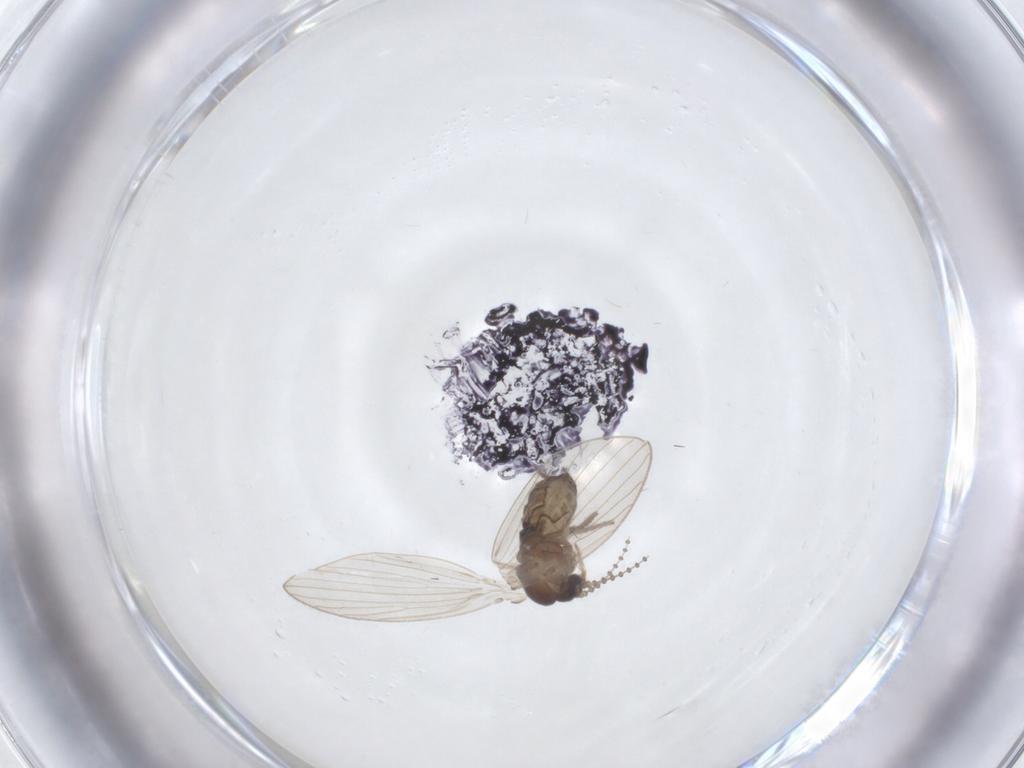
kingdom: Animalia
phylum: Arthropoda
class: Insecta
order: Diptera
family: Psychodidae
